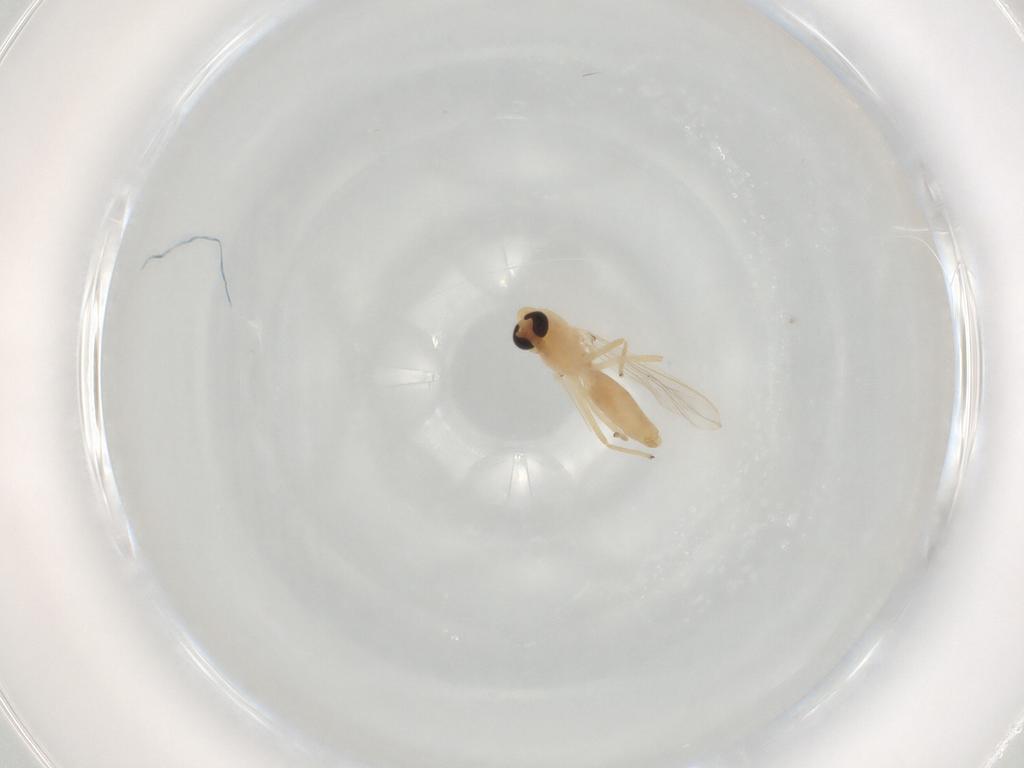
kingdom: Animalia
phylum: Arthropoda
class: Insecta
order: Diptera
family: Chironomidae
